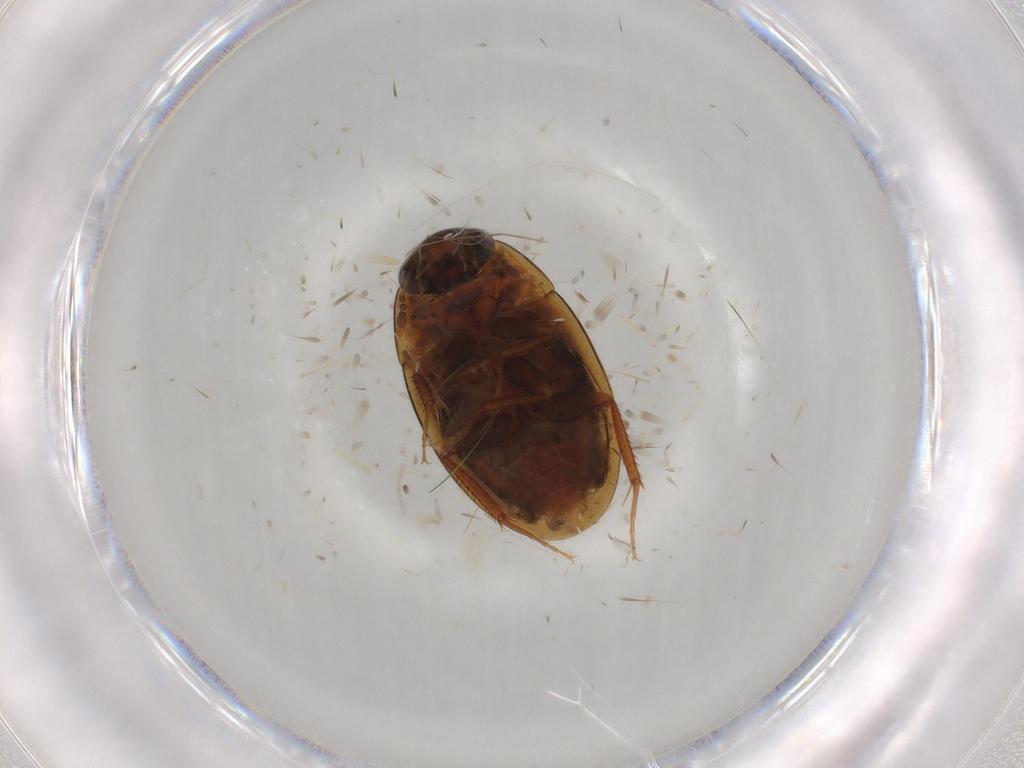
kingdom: Animalia
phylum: Arthropoda
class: Insecta
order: Coleoptera
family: Hydrophilidae
